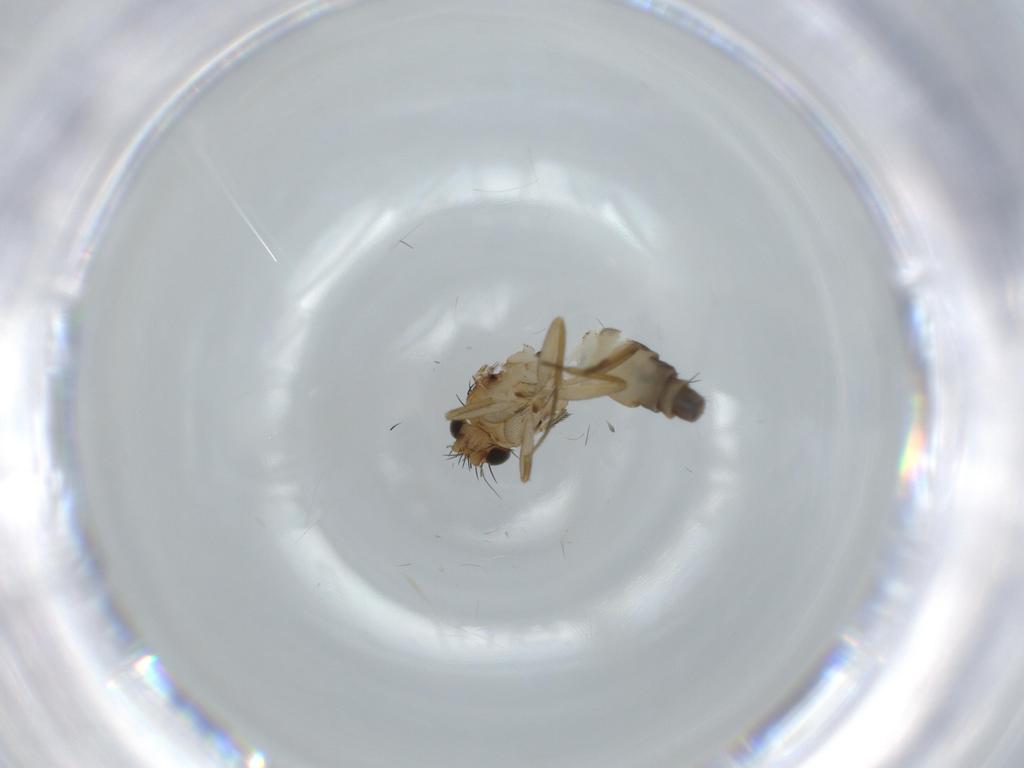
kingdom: Animalia
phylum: Arthropoda
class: Insecta
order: Diptera
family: Sciaridae
